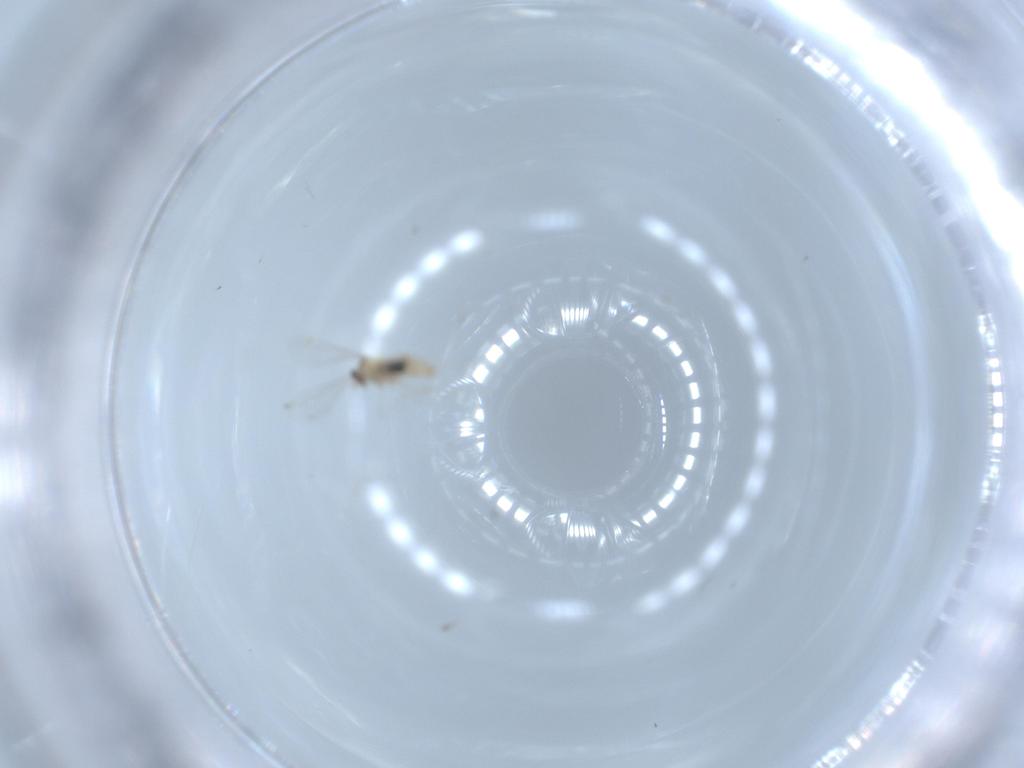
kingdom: Animalia
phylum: Arthropoda
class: Insecta
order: Diptera
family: Cecidomyiidae
